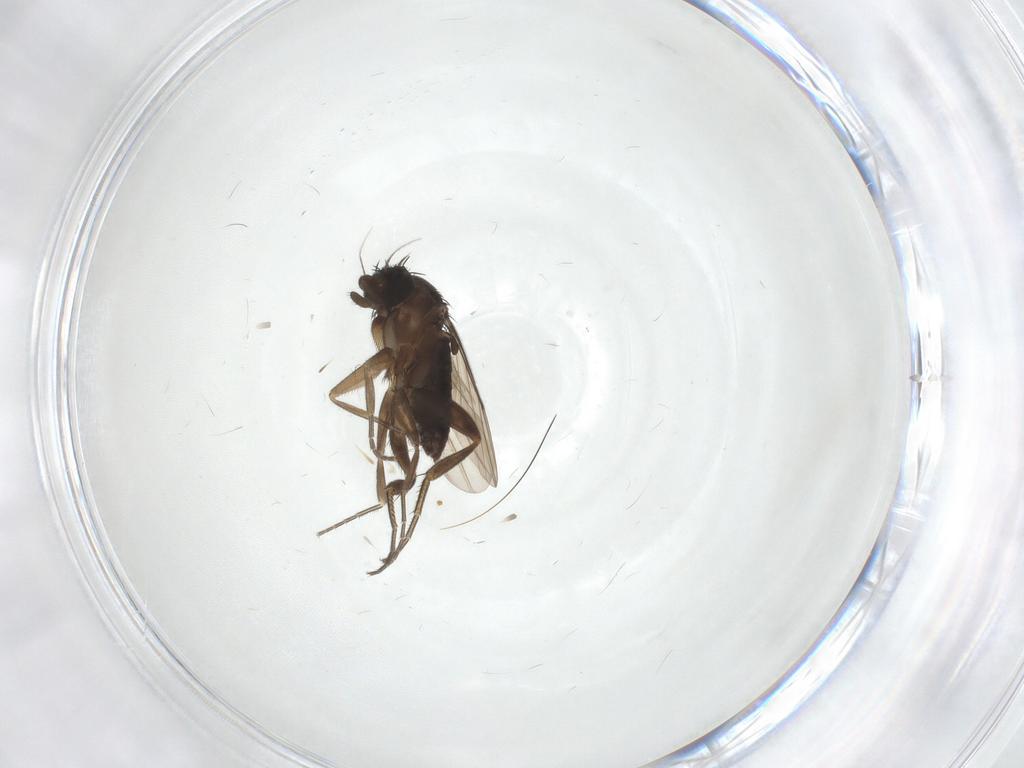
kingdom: Animalia
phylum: Arthropoda
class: Insecta
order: Diptera
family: Phoridae
